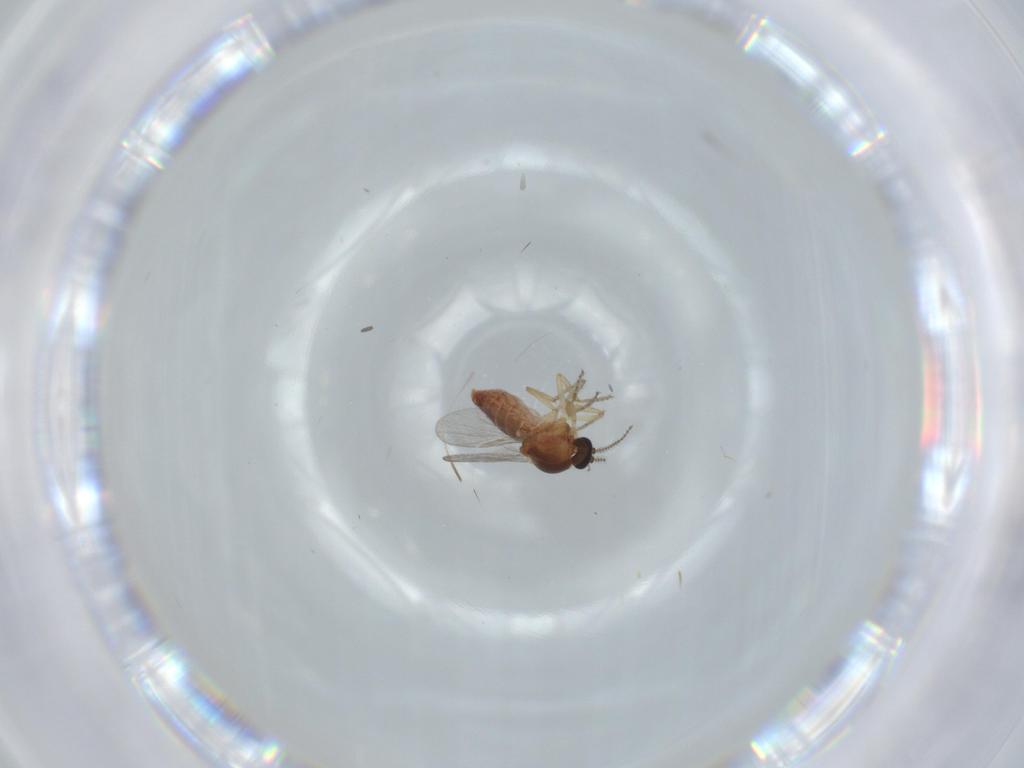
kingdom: Animalia
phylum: Arthropoda
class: Insecta
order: Diptera
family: Ceratopogonidae
